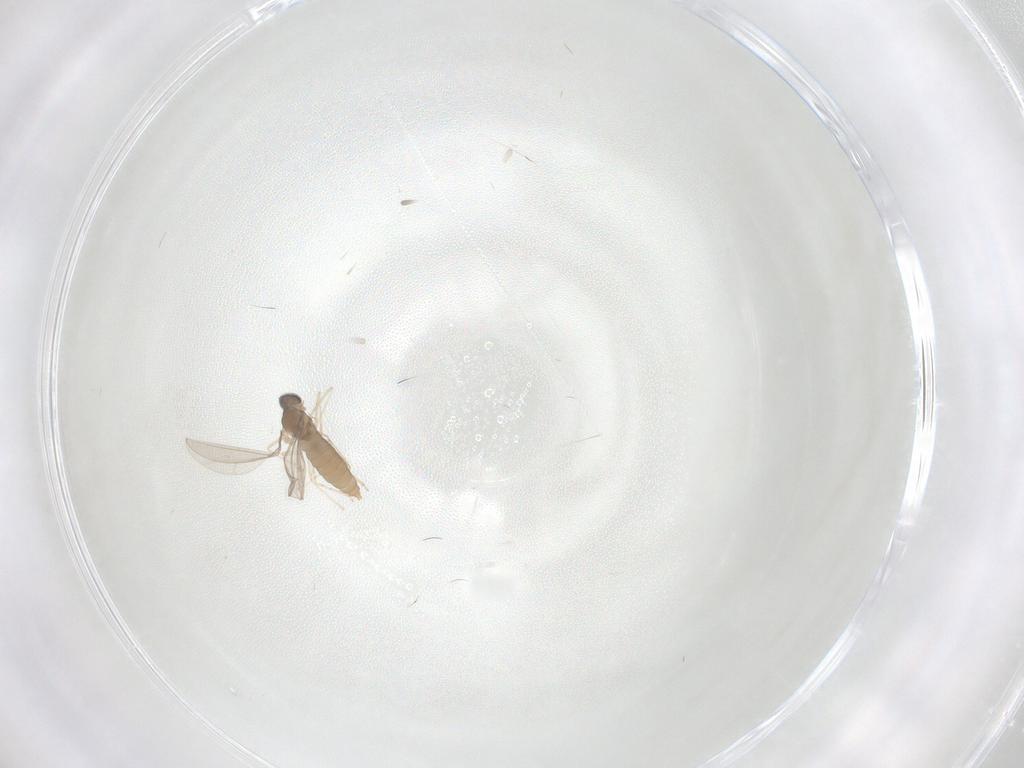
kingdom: Animalia
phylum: Arthropoda
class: Insecta
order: Diptera
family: Cecidomyiidae
